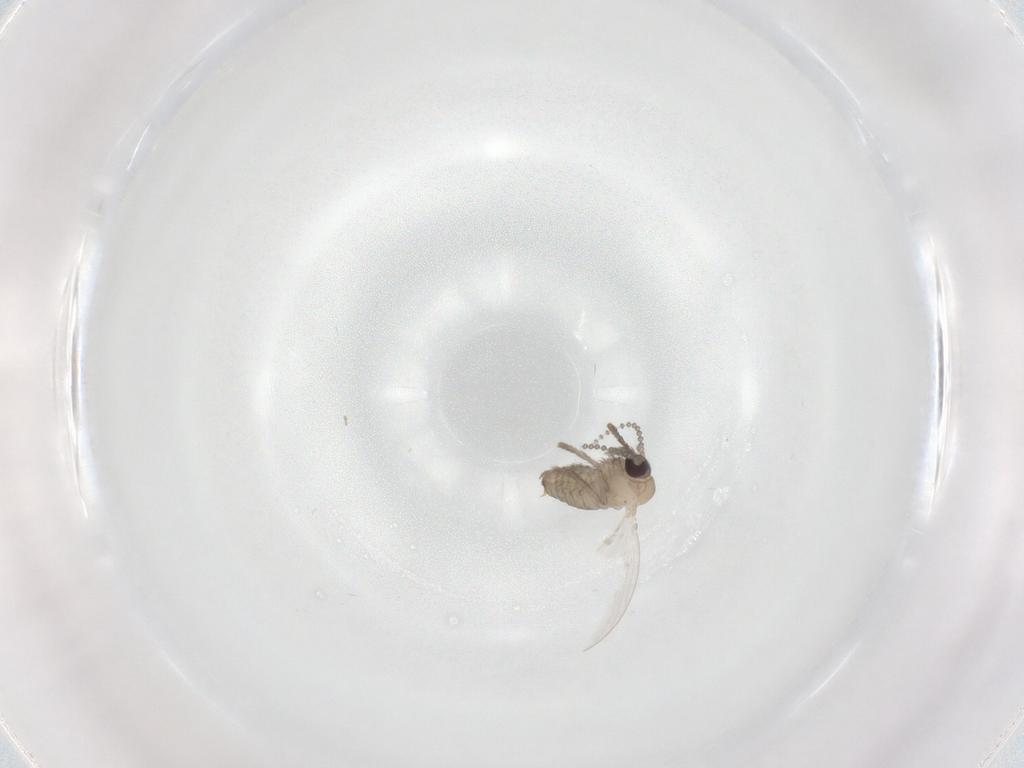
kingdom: Animalia
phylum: Arthropoda
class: Insecta
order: Diptera
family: Psychodidae
